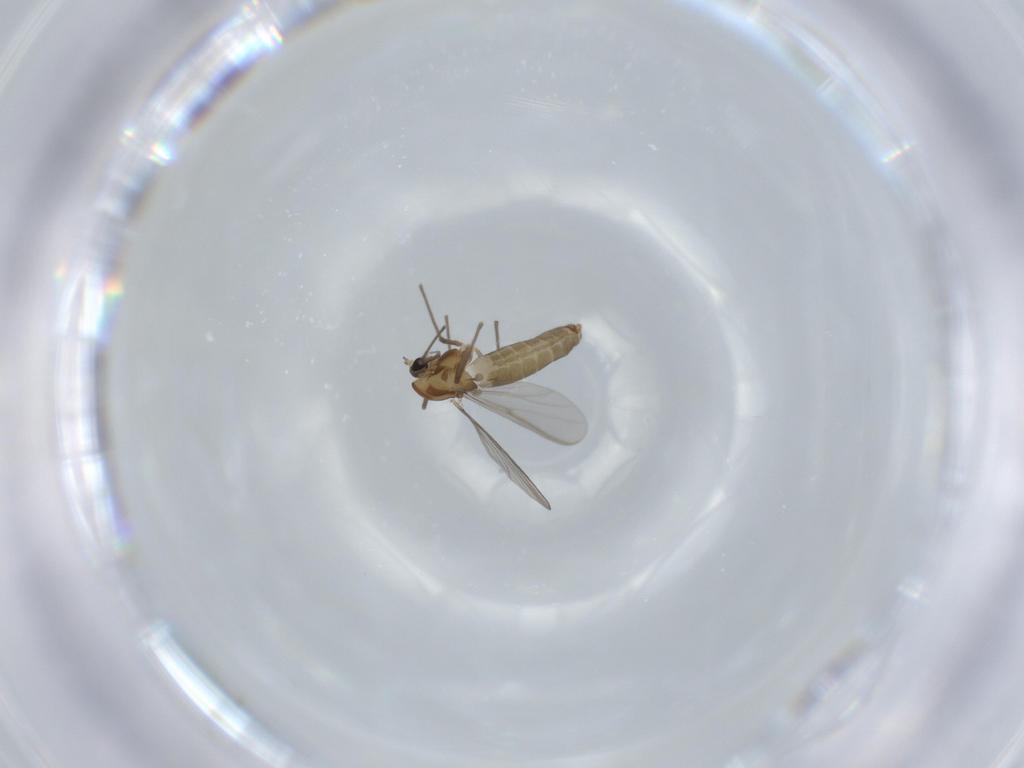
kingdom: Animalia
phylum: Arthropoda
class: Insecta
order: Diptera
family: Chironomidae
